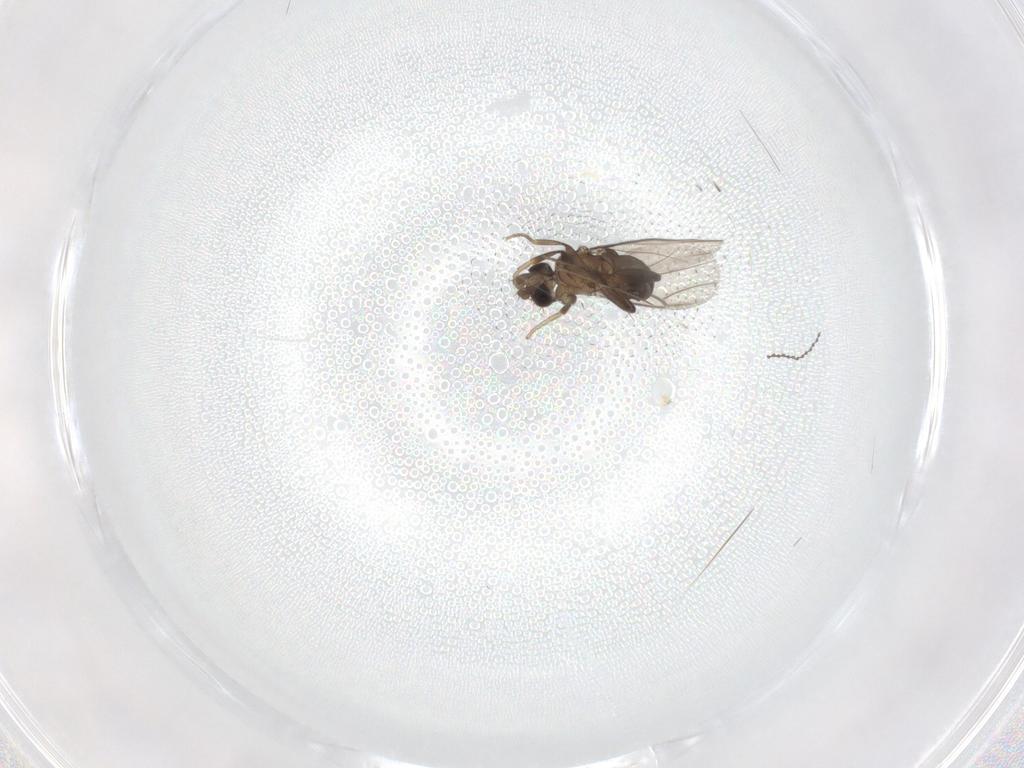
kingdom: Animalia
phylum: Arthropoda
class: Insecta
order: Diptera
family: Phoridae
